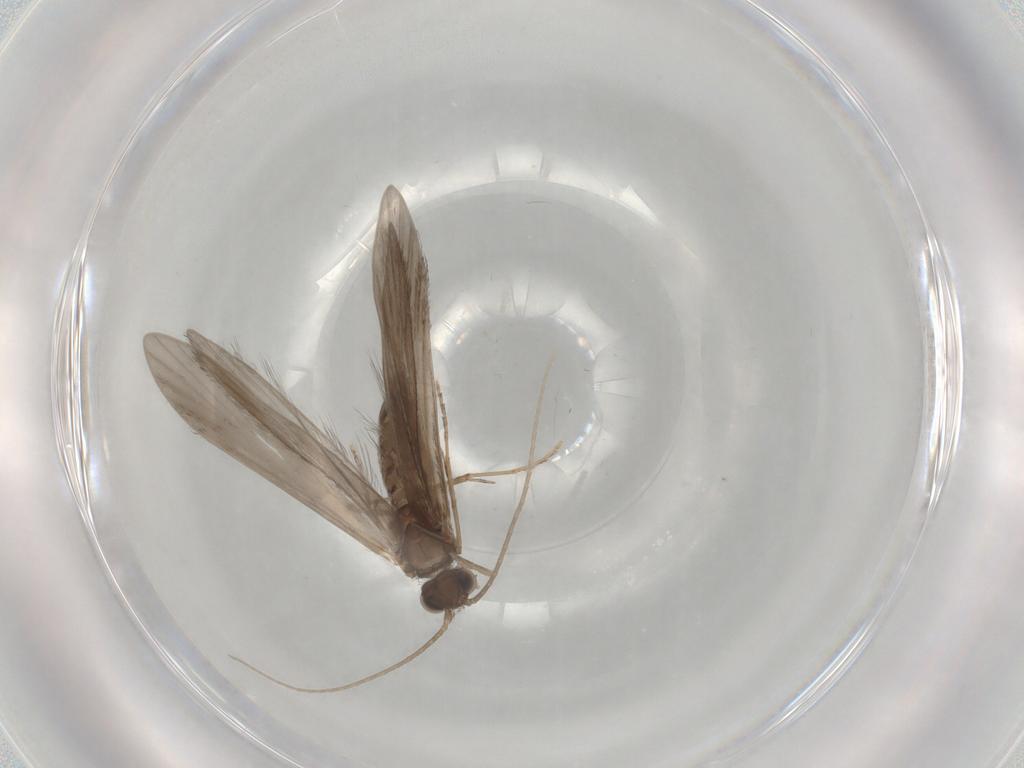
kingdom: Animalia
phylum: Arthropoda
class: Insecta
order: Trichoptera
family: Xiphocentronidae
